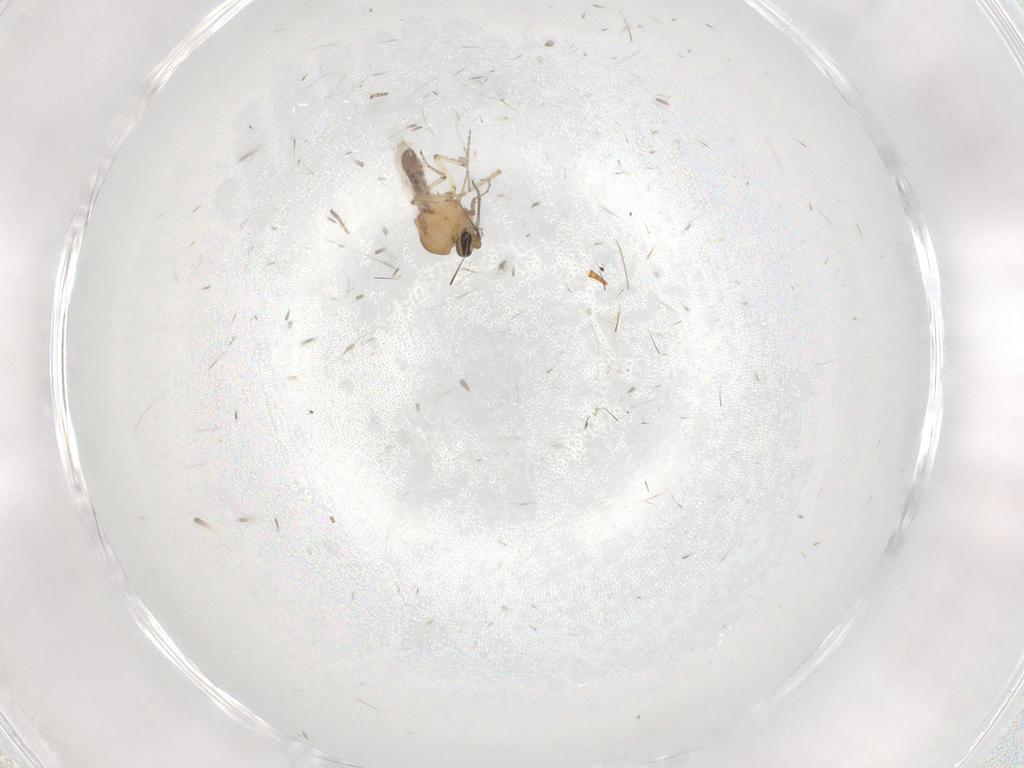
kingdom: Animalia
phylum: Arthropoda
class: Insecta
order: Diptera
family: Ceratopogonidae
